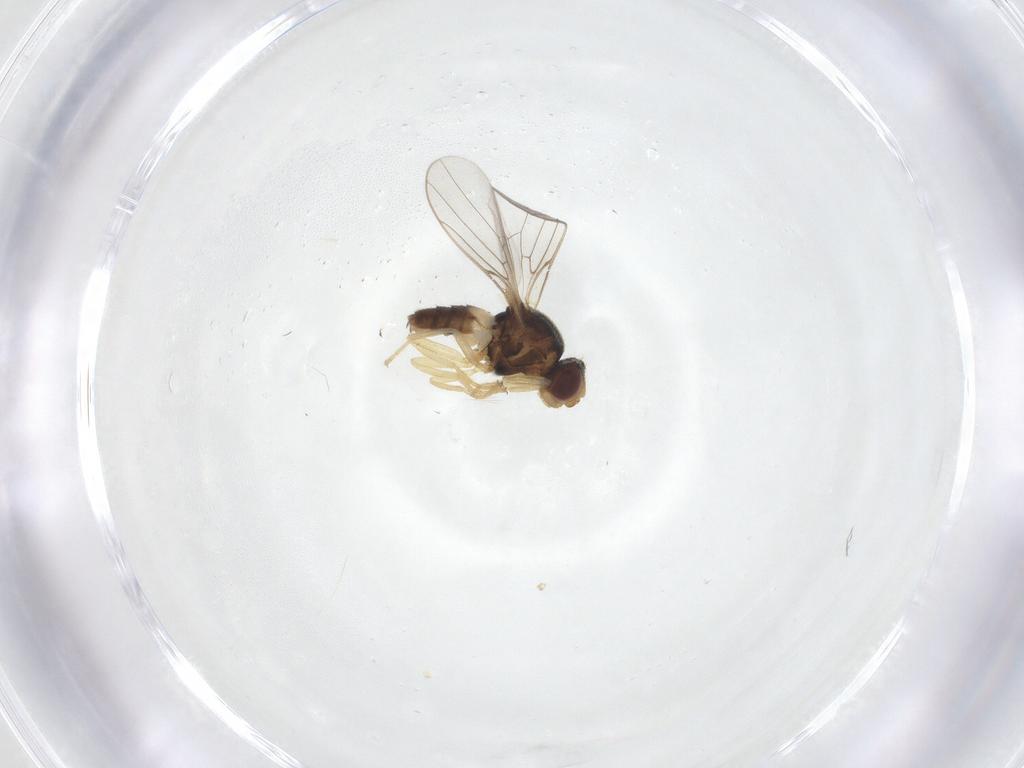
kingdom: Animalia
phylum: Arthropoda
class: Insecta
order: Diptera
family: Chloropidae
